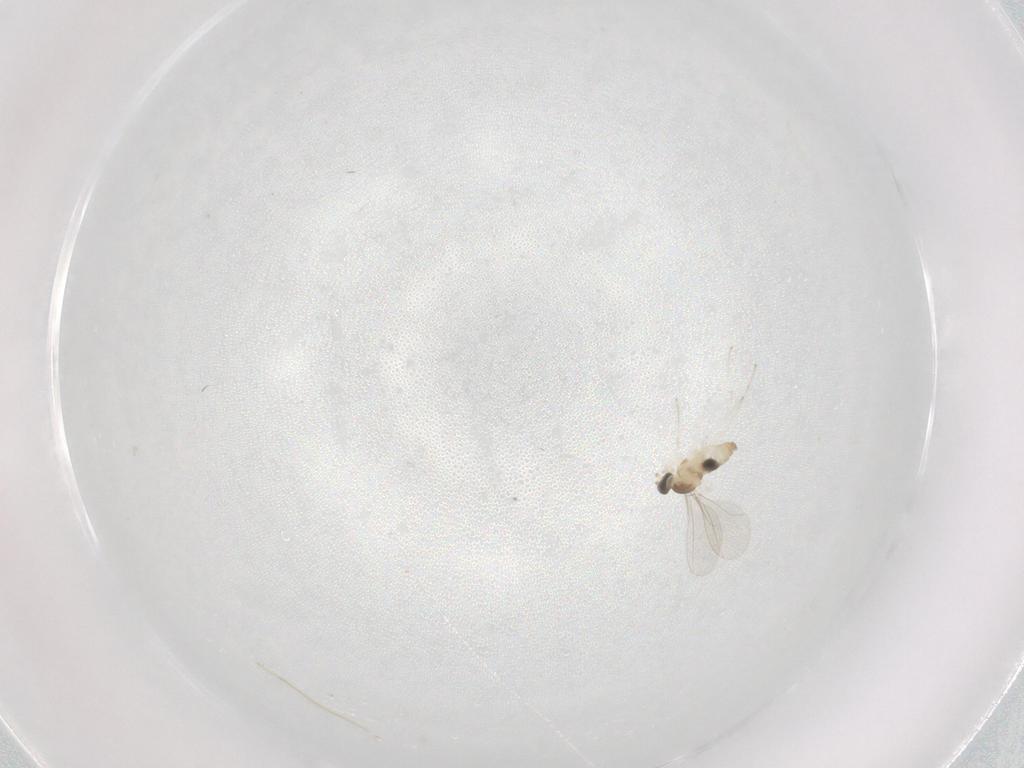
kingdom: Animalia
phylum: Arthropoda
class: Insecta
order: Diptera
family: Cecidomyiidae
